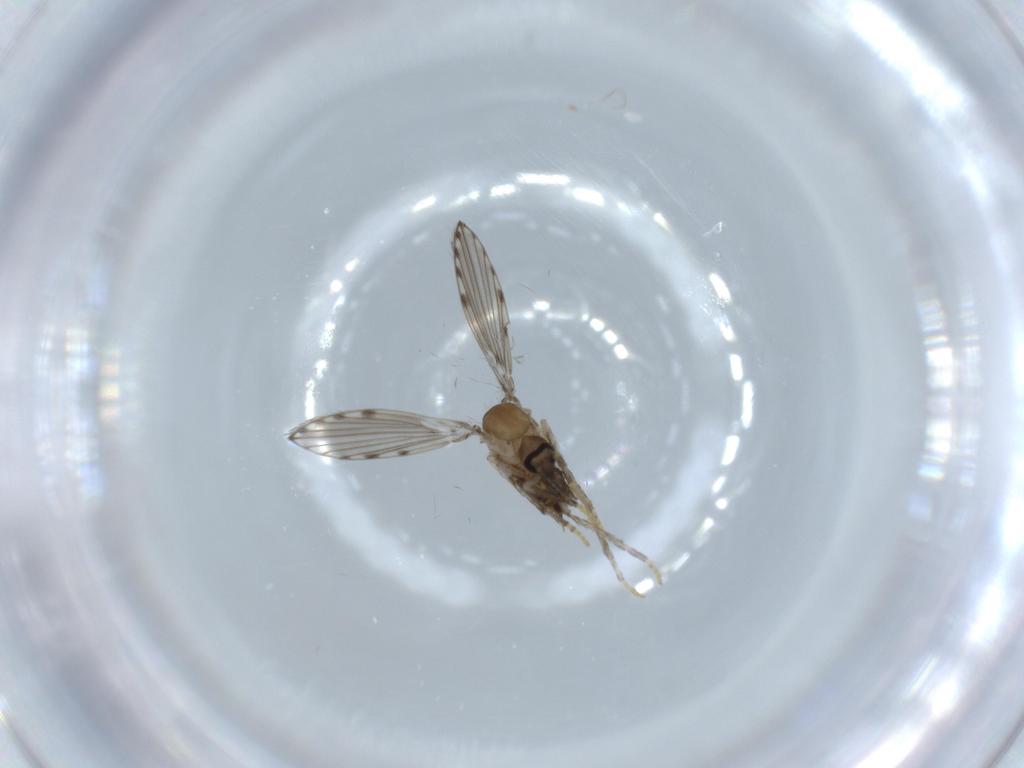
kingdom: Animalia
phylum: Arthropoda
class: Insecta
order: Diptera
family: Psychodidae
